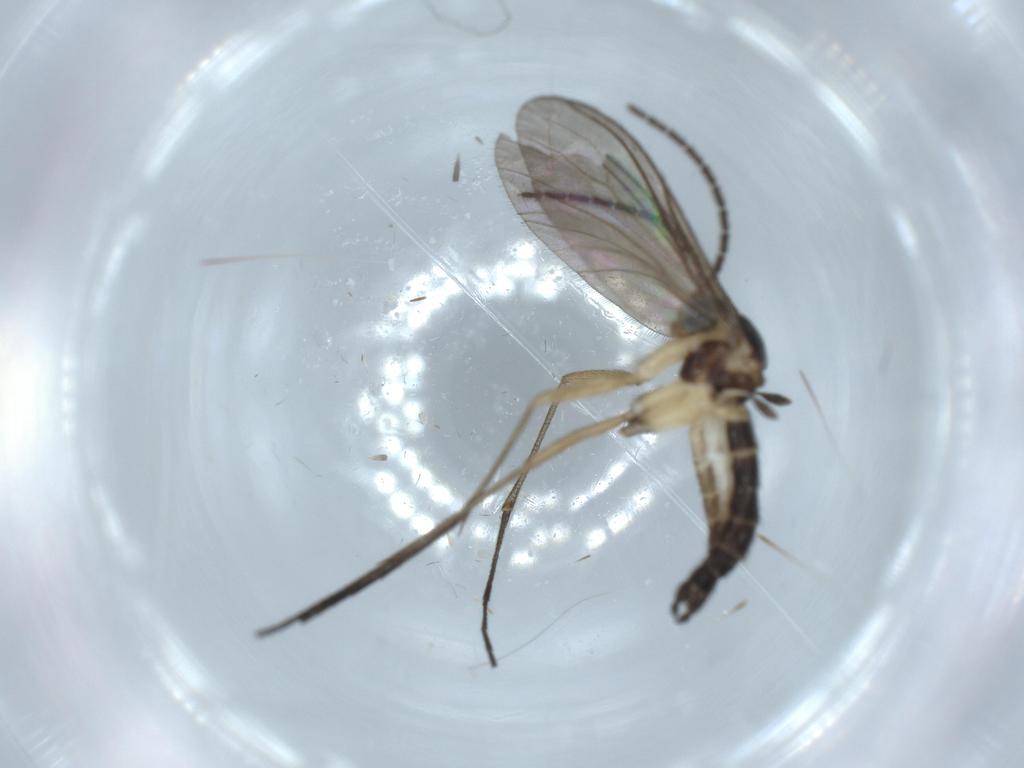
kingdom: Animalia
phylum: Arthropoda
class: Insecta
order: Diptera
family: Sciaridae
